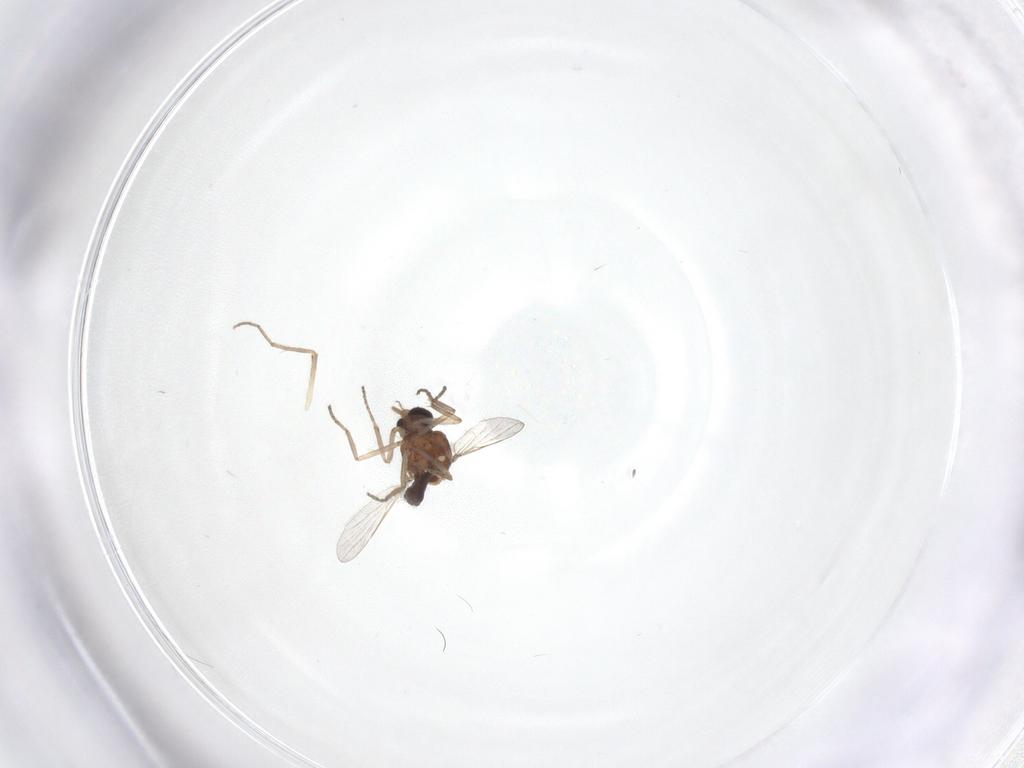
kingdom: Animalia
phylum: Arthropoda
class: Insecta
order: Diptera
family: Ceratopogonidae
